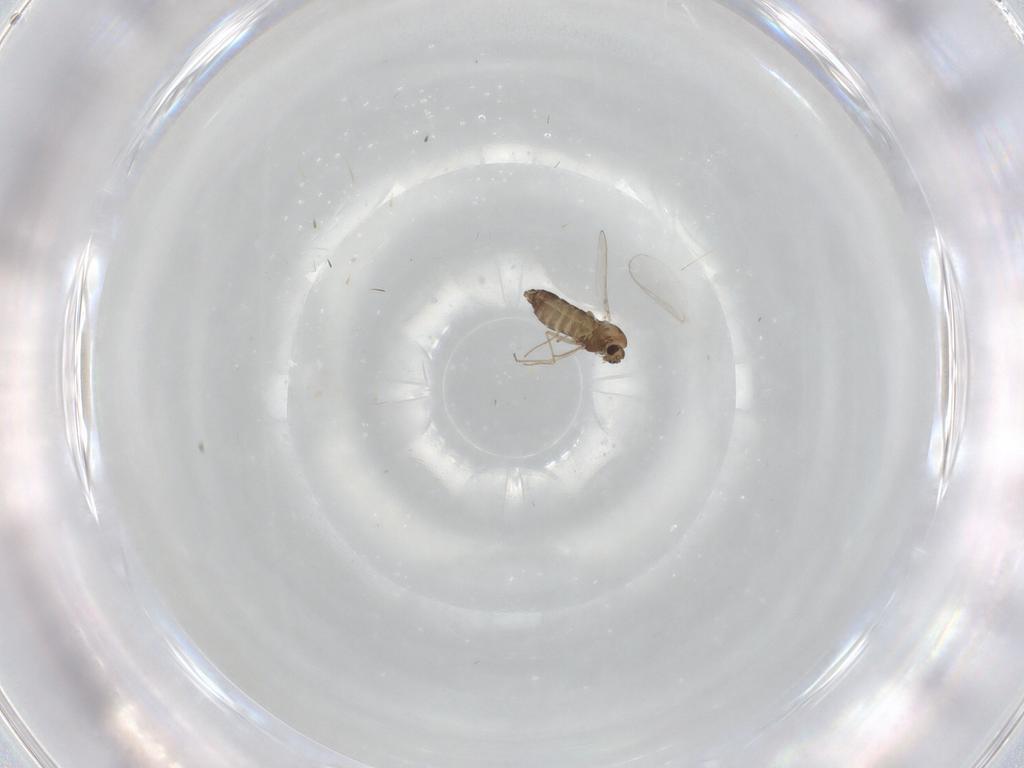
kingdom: Animalia
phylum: Arthropoda
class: Insecta
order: Diptera
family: Chironomidae
